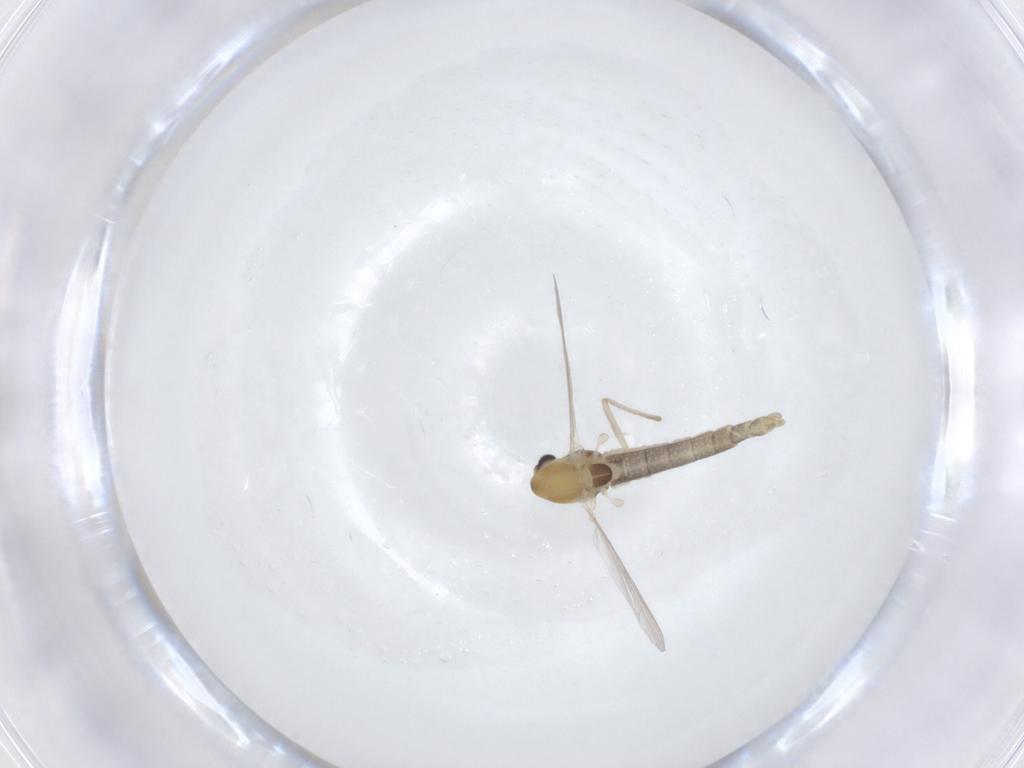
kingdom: Animalia
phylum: Arthropoda
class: Insecta
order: Diptera
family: Chironomidae
